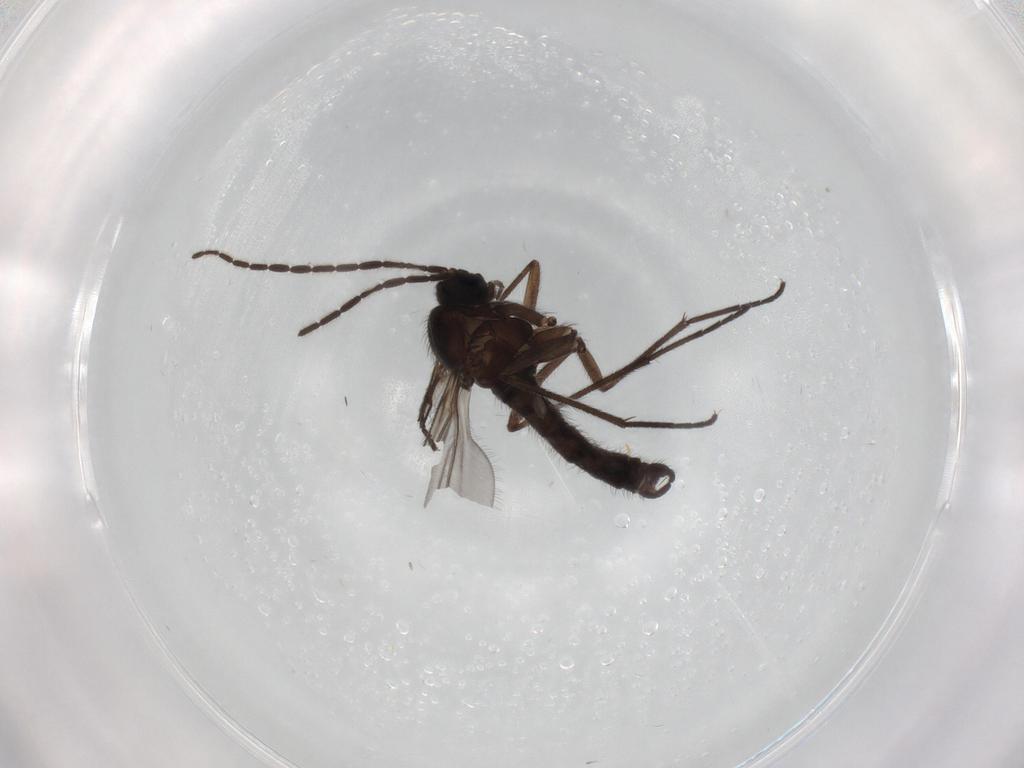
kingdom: Animalia
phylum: Arthropoda
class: Insecta
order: Diptera
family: Sciaridae
